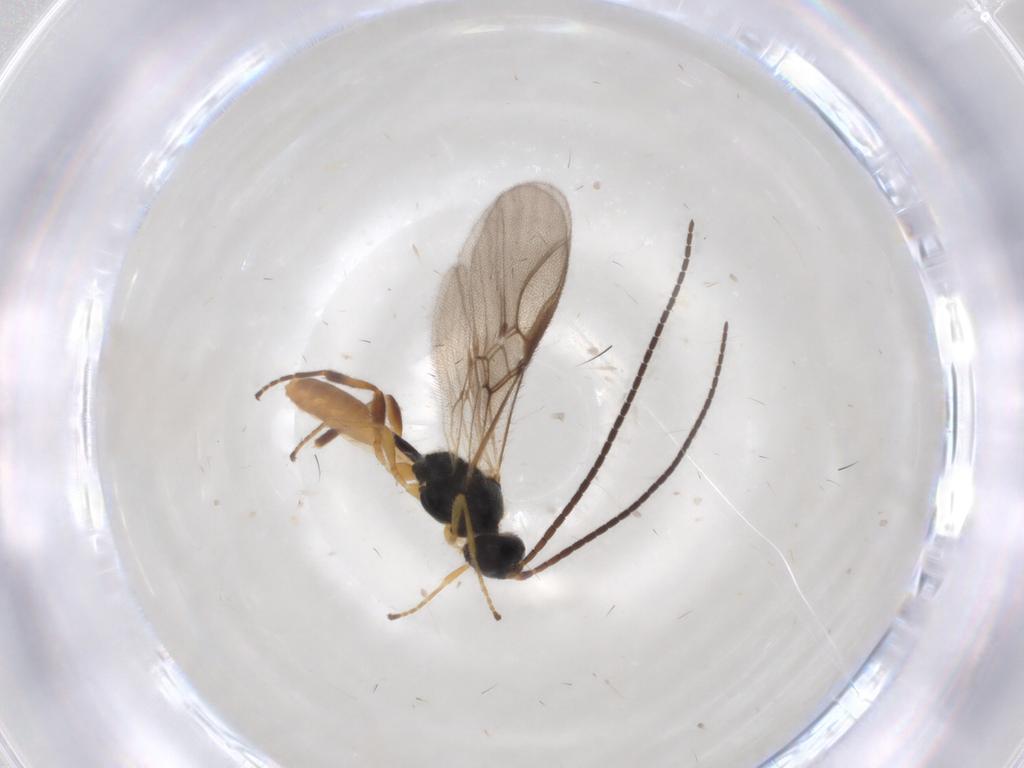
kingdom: Animalia
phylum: Arthropoda
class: Insecta
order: Hymenoptera
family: Braconidae
